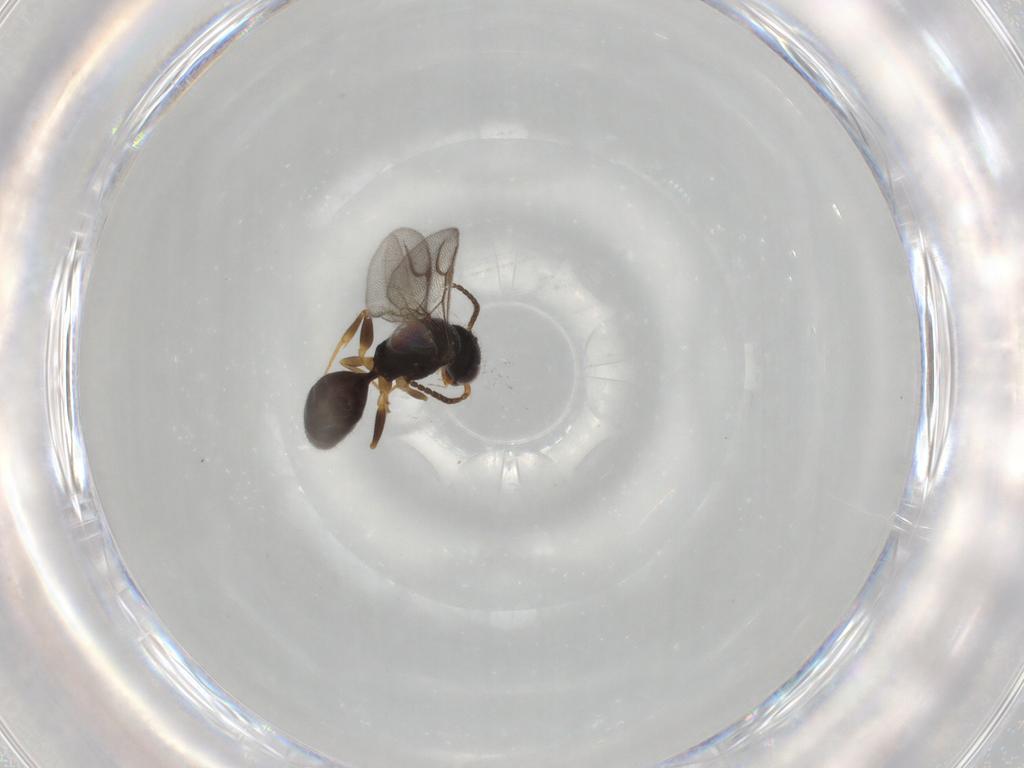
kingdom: Animalia
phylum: Arthropoda
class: Insecta
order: Hymenoptera
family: Bethylidae
